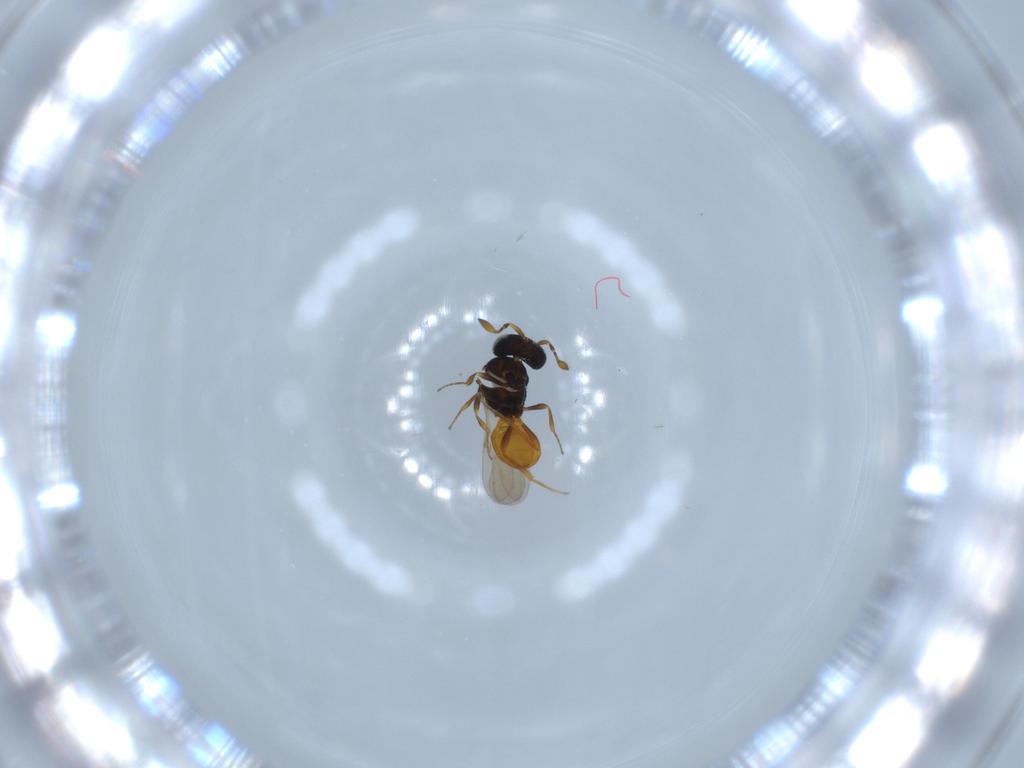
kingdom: Animalia
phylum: Arthropoda
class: Insecta
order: Hymenoptera
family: Scelionidae
